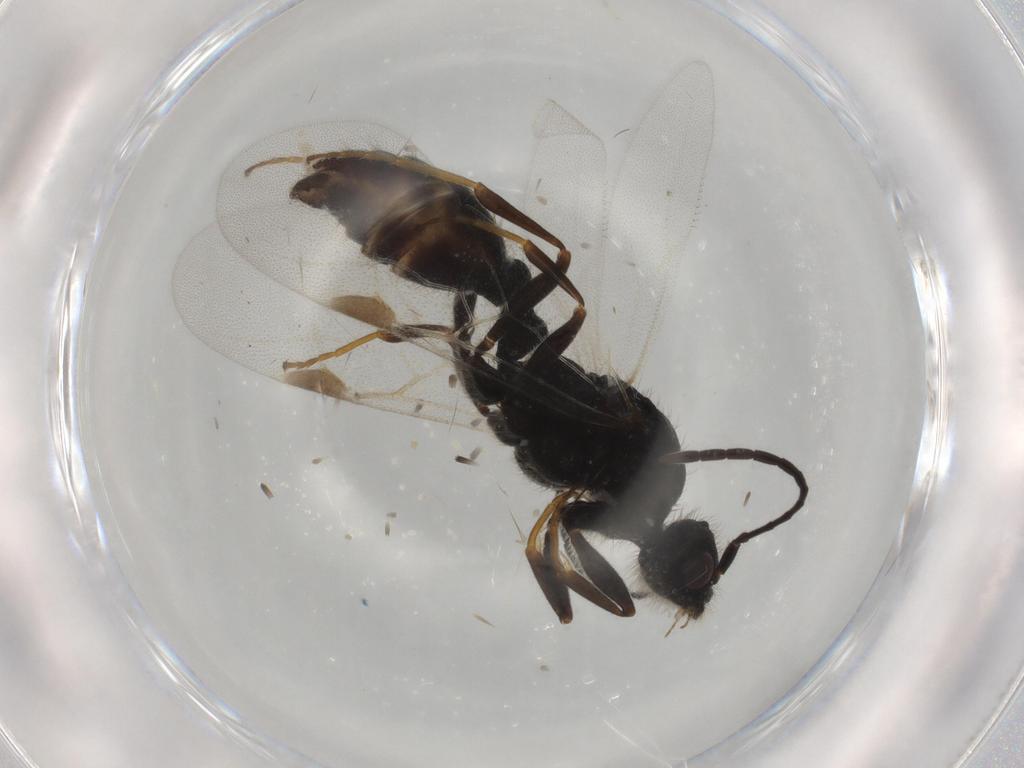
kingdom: Animalia
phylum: Arthropoda
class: Insecta
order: Hymenoptera
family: Formicidae
